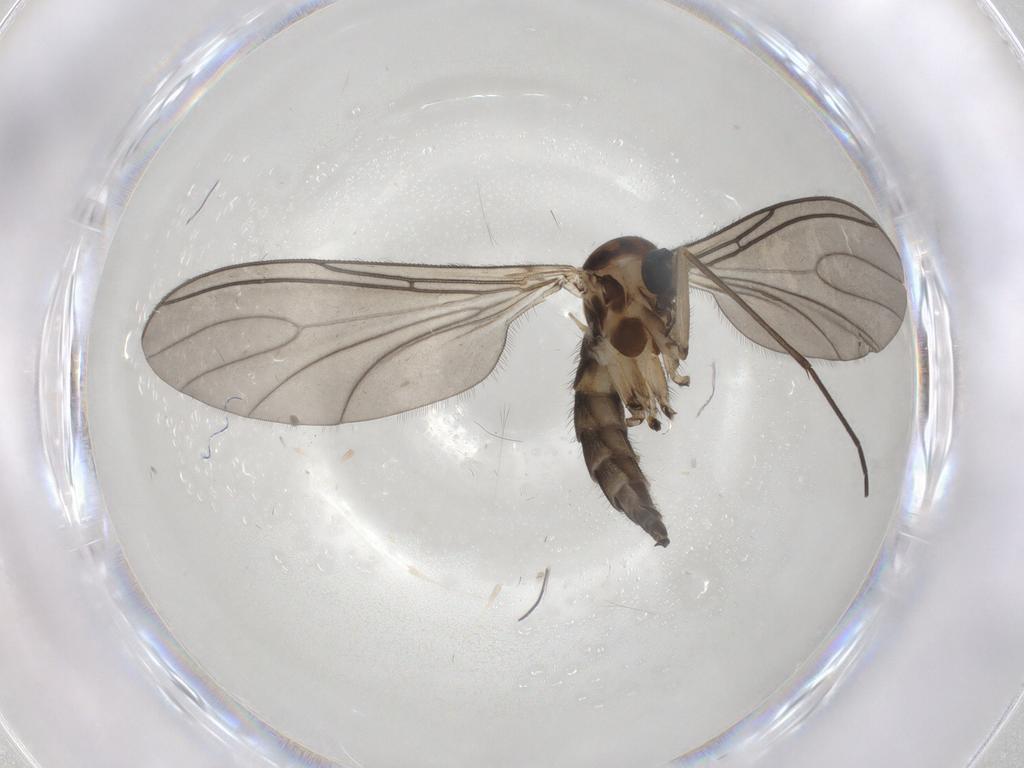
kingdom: Animalia
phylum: Arthropoda
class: Insecta
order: Diptera
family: Sciaridae
